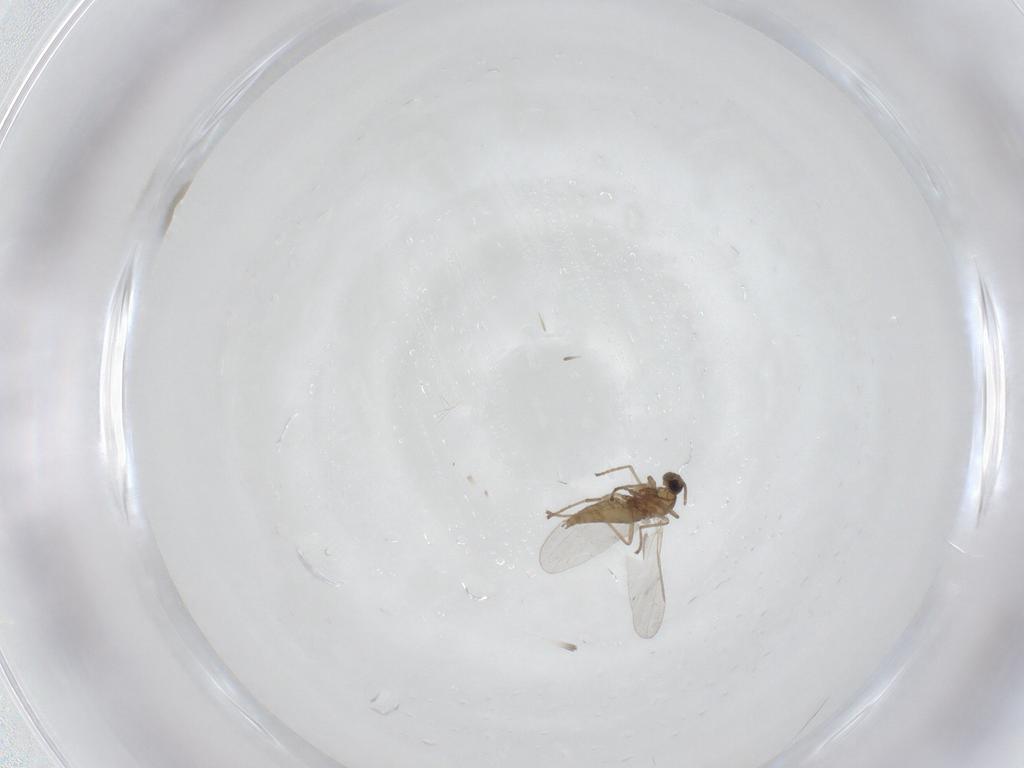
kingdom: Animalia
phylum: Arthropoda
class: Insecta
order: Diptera
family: Cecidomyiidae
